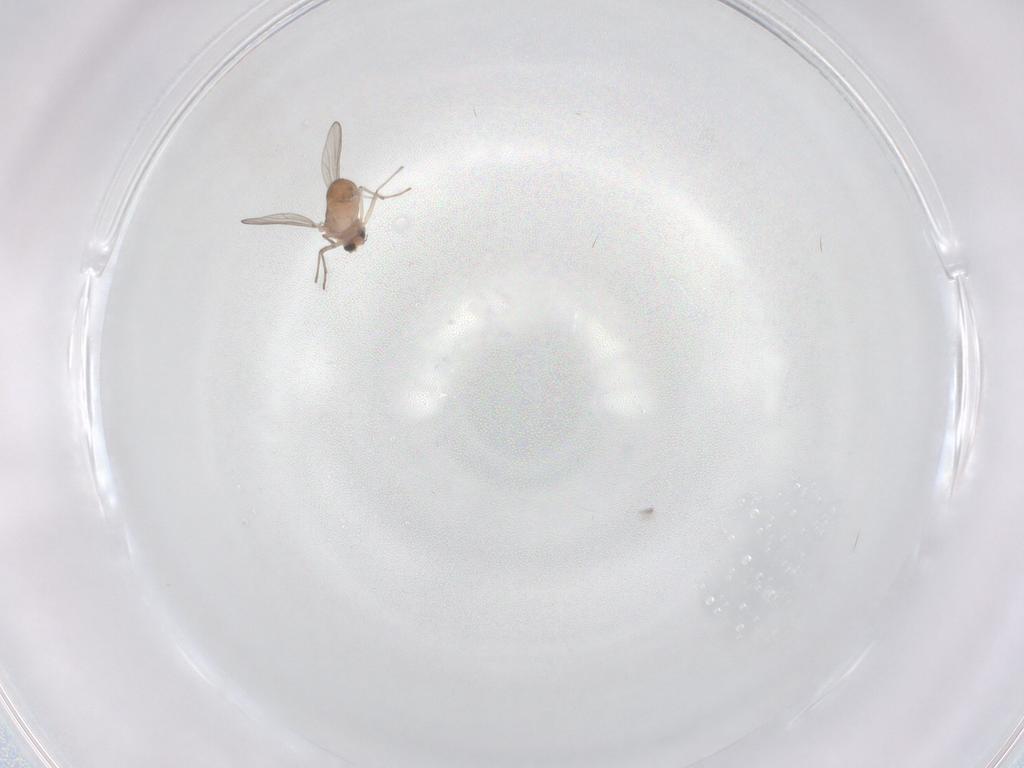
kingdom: Animalia
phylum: Arthropoda
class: Insecta
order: Diptera
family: Chironomidae
